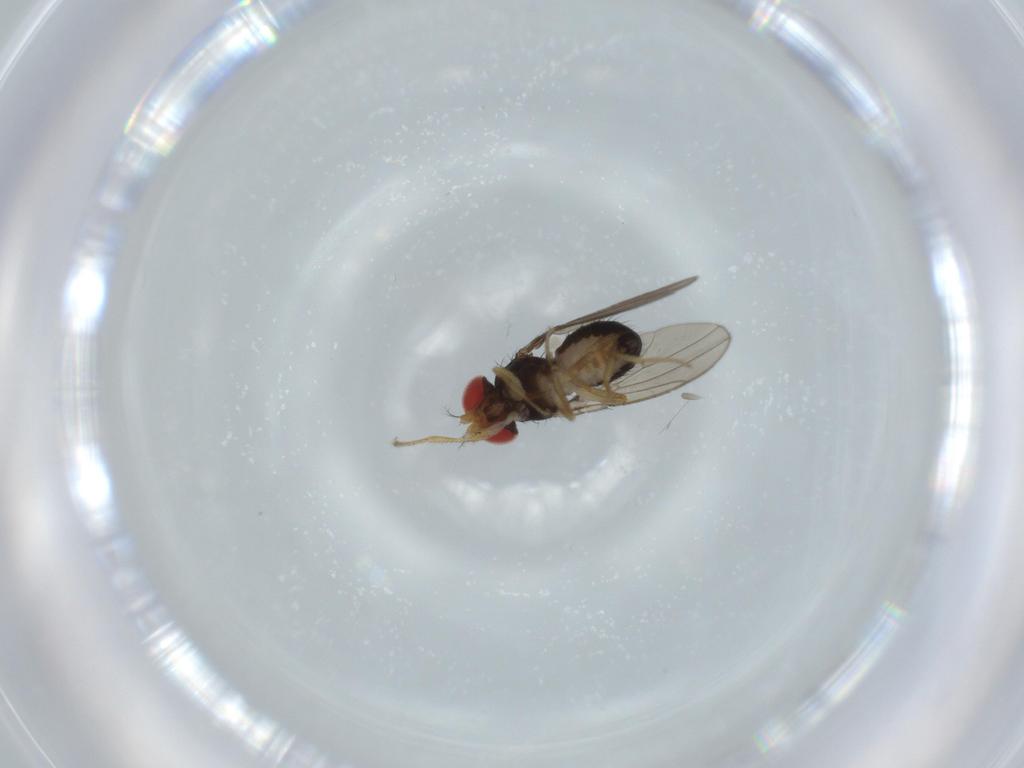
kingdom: Animalia
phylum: Arthropoda
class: Insecta
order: Diptera
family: Drosophilidae
